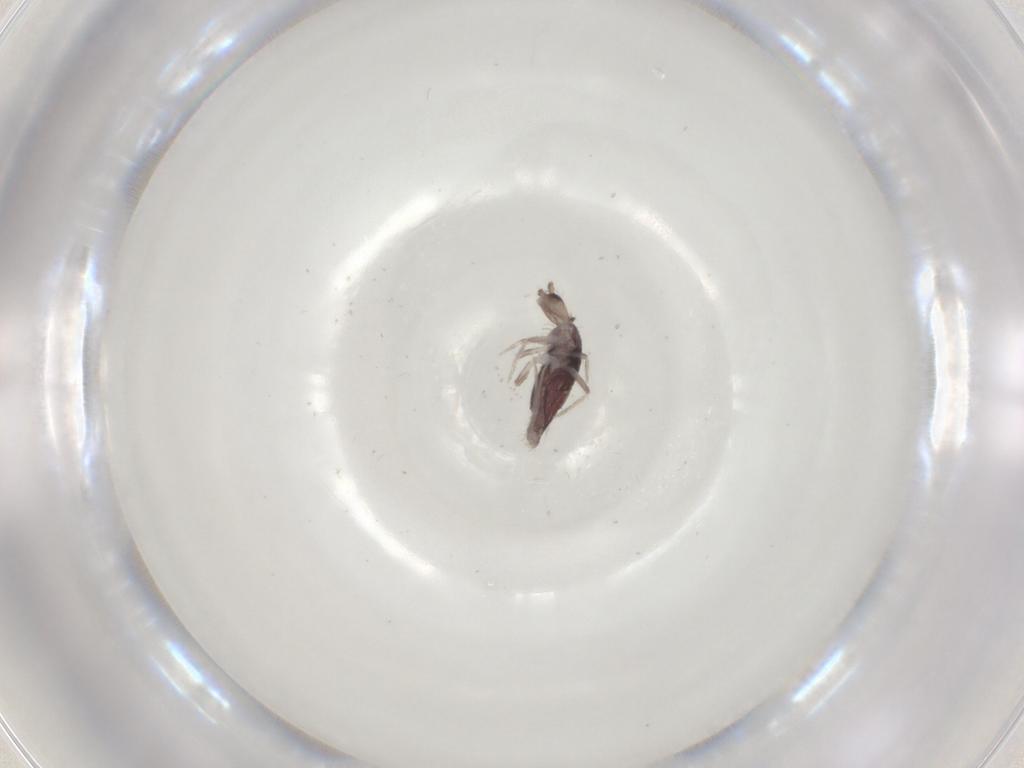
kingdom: Animalia
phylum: Arthropoda
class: Collembola
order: Entomobryomorpha
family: Entomobryidae
